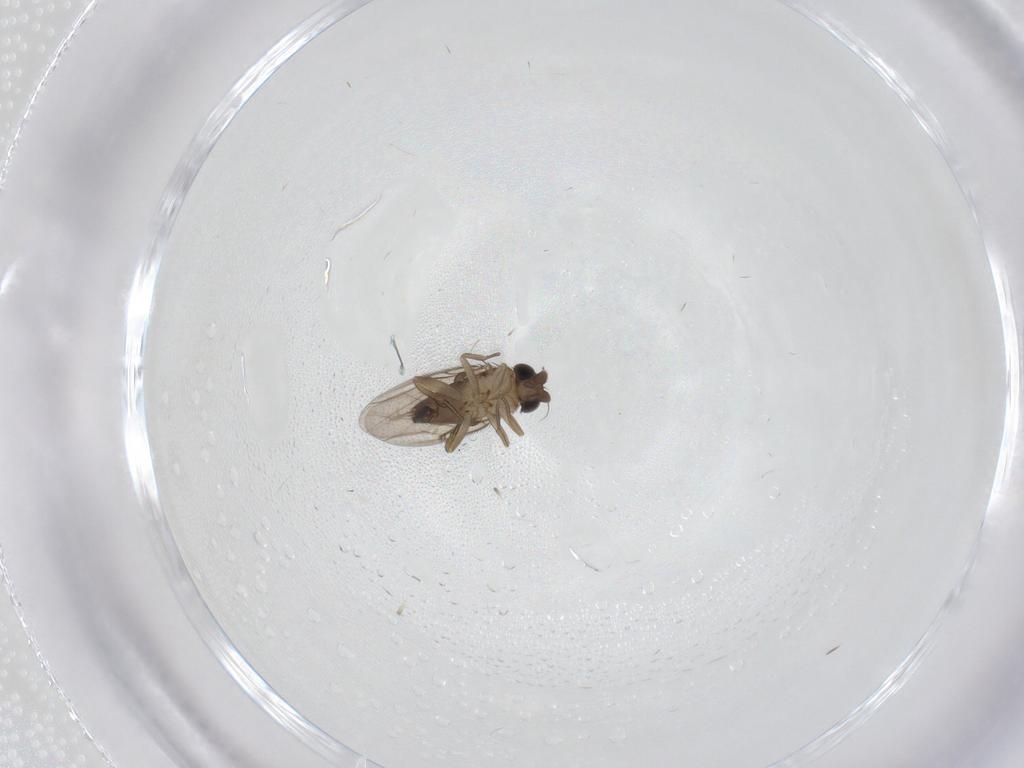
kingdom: Animalia
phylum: Arthropoda
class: Insecta
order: Diptera
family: Phoridae
